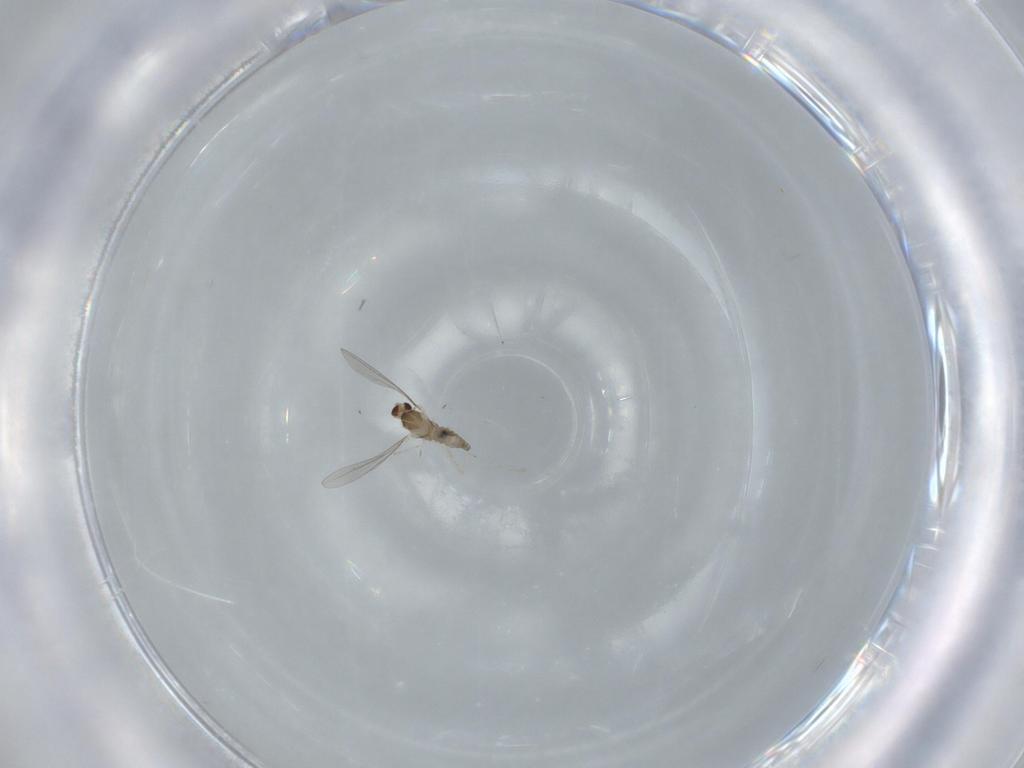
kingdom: Animalia
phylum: Arthropoda
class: Insecta
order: Diptera
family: Cecidomyiidae
